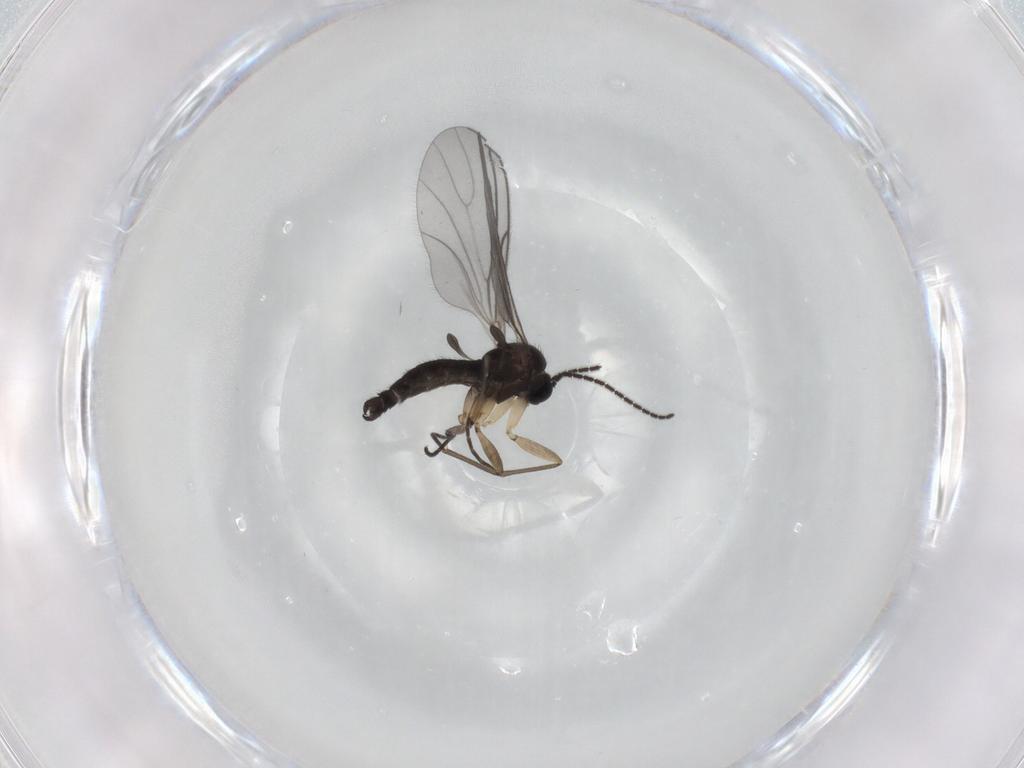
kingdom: Animalia
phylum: Arthropoda
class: Insecta
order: Diptera
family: Sciaridae
